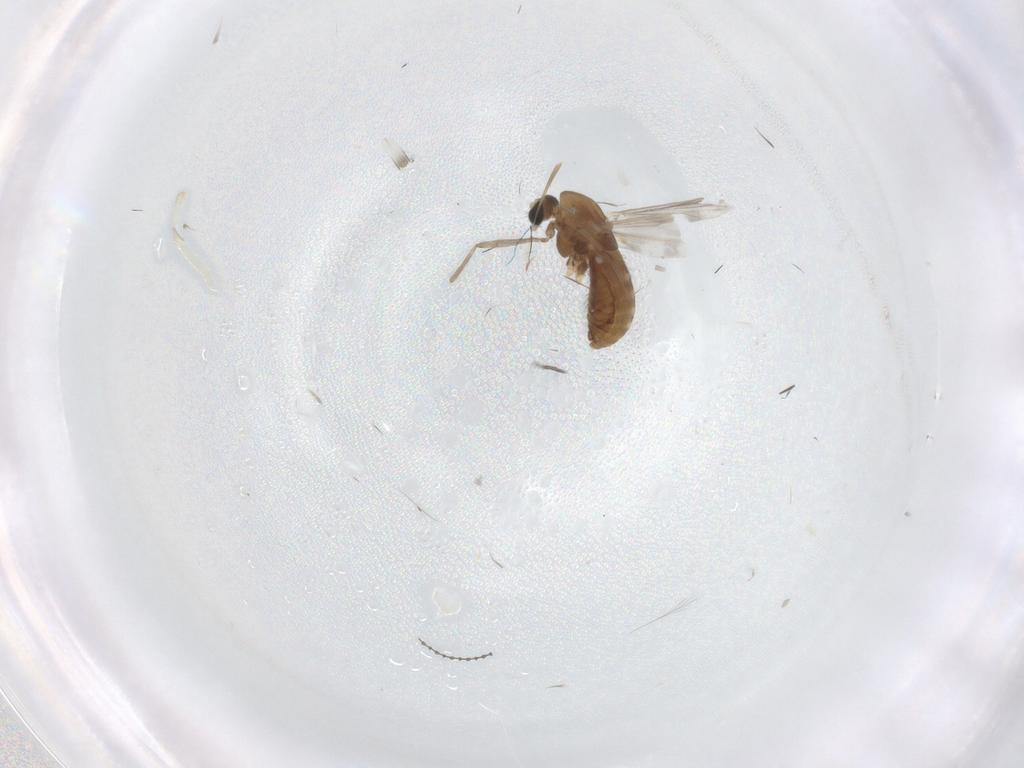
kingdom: Animalia
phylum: Arthropoda
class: Insecta
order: Diptera
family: Chironomidae
